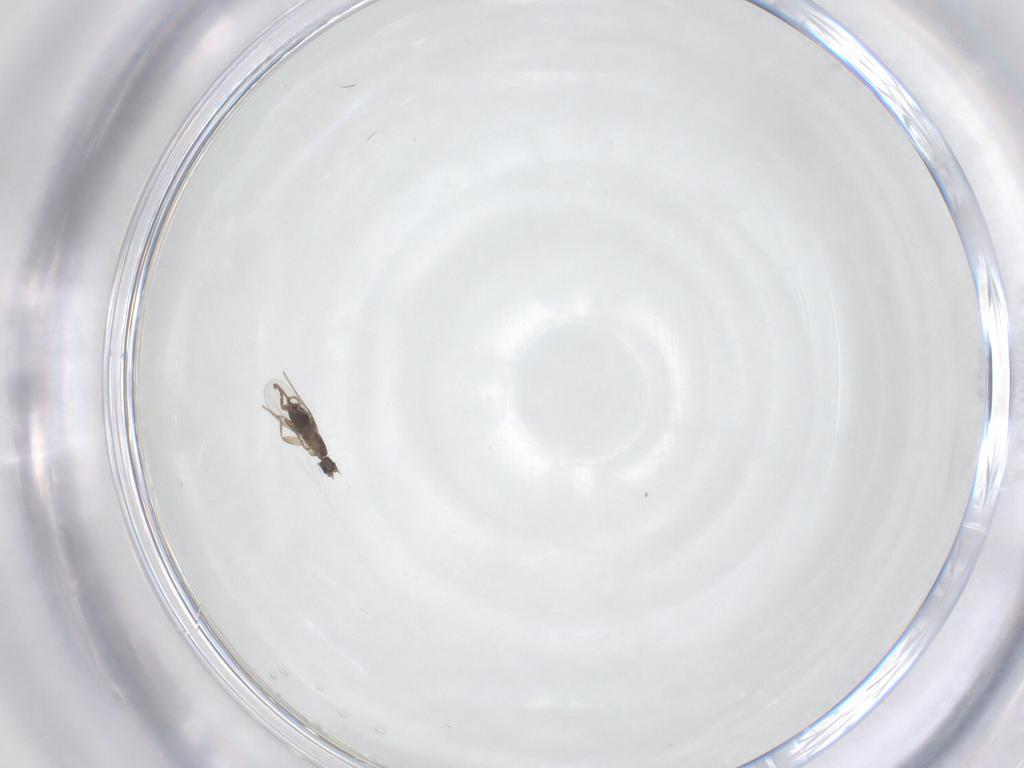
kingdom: Animalia
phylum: Arthropoda
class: Insecta
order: Diptera
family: Phoridae
